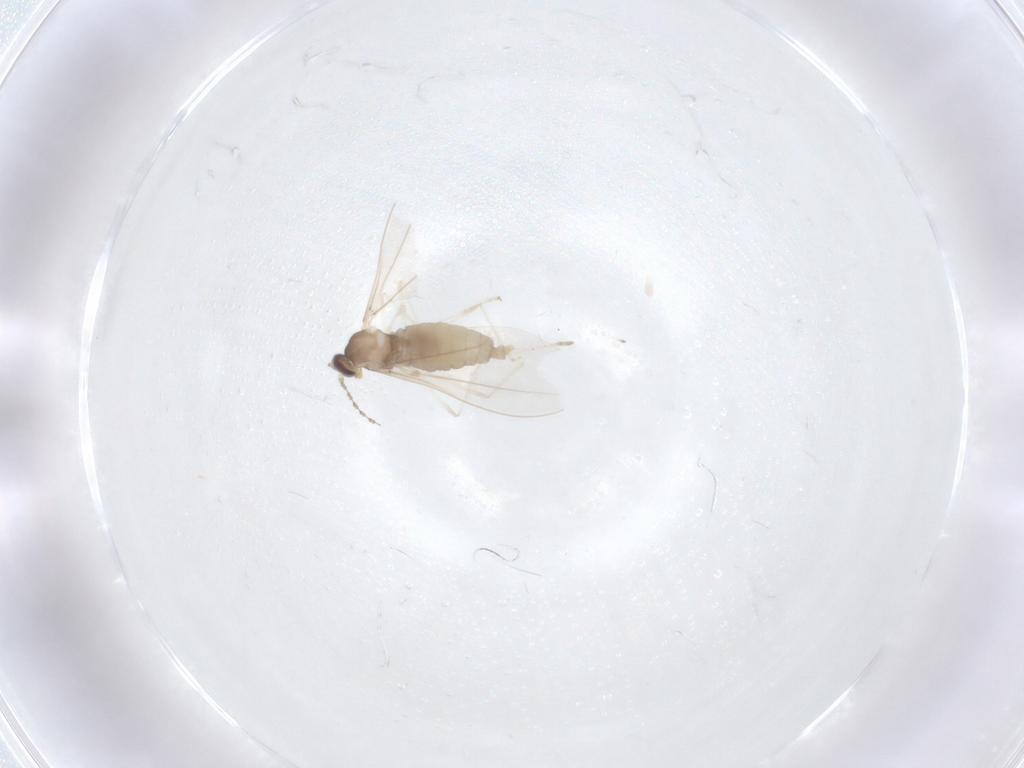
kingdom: Animalia
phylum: Arthropoda
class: Insecta
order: Diptera
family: Cecidomyiidae
